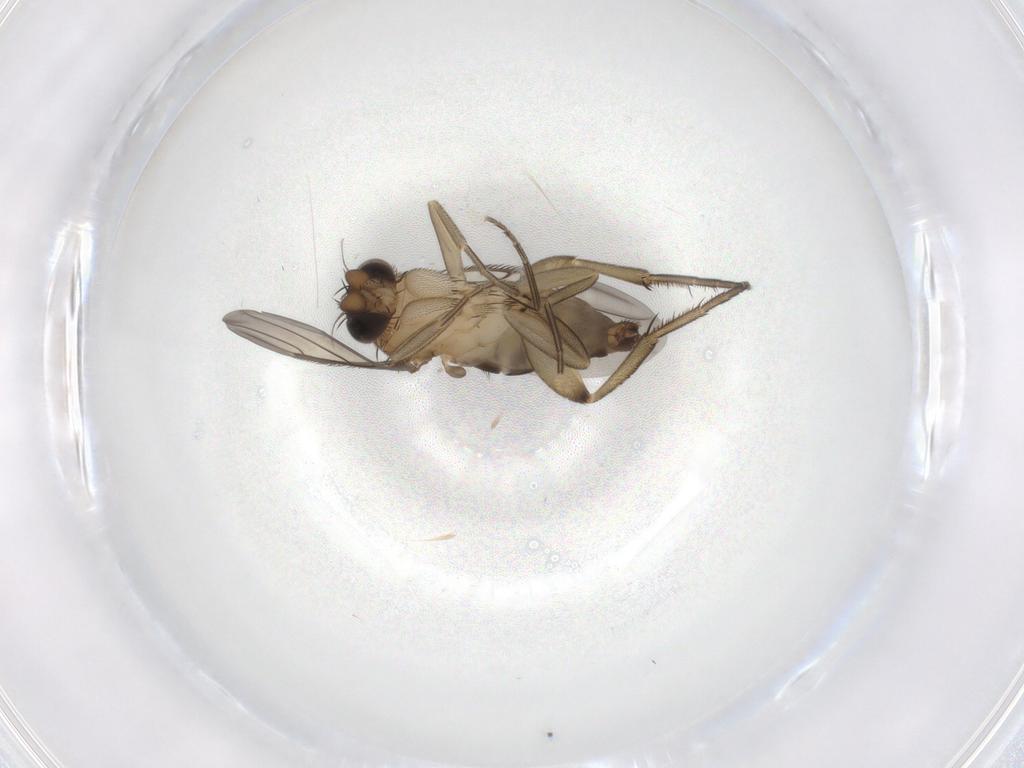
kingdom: Animalia
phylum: Arthropoda
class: Insecta
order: Diptera
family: Phoridae
